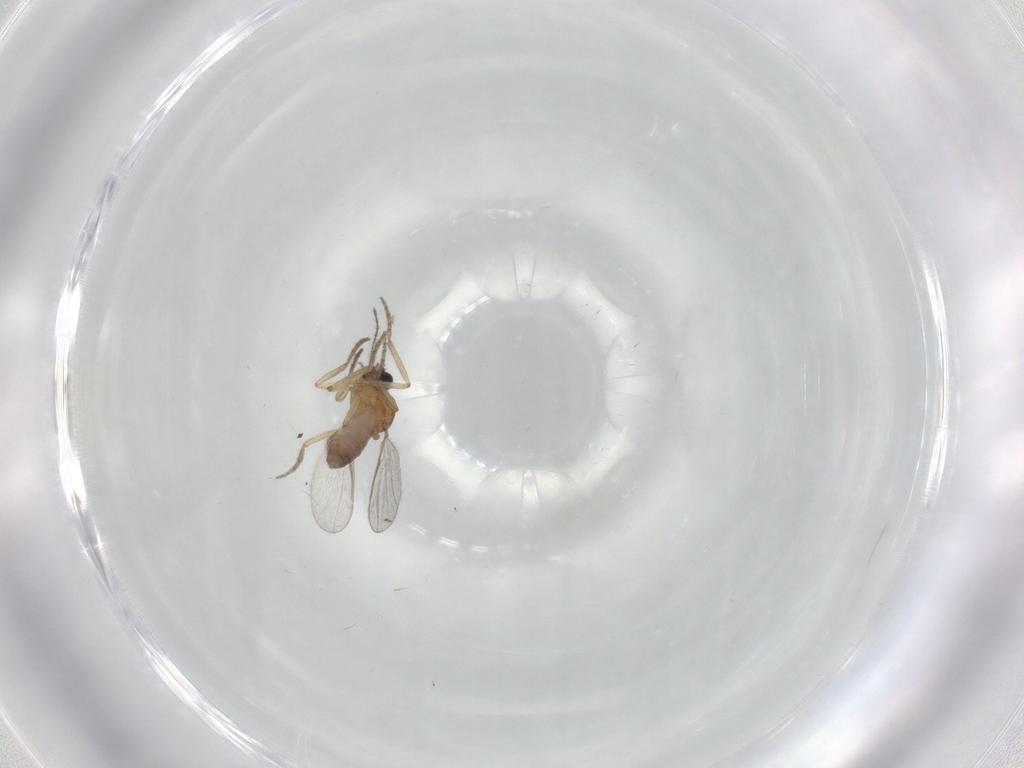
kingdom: Animalia
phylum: Arthropoda
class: Insecta
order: Diptera
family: Ceratopogonidae
